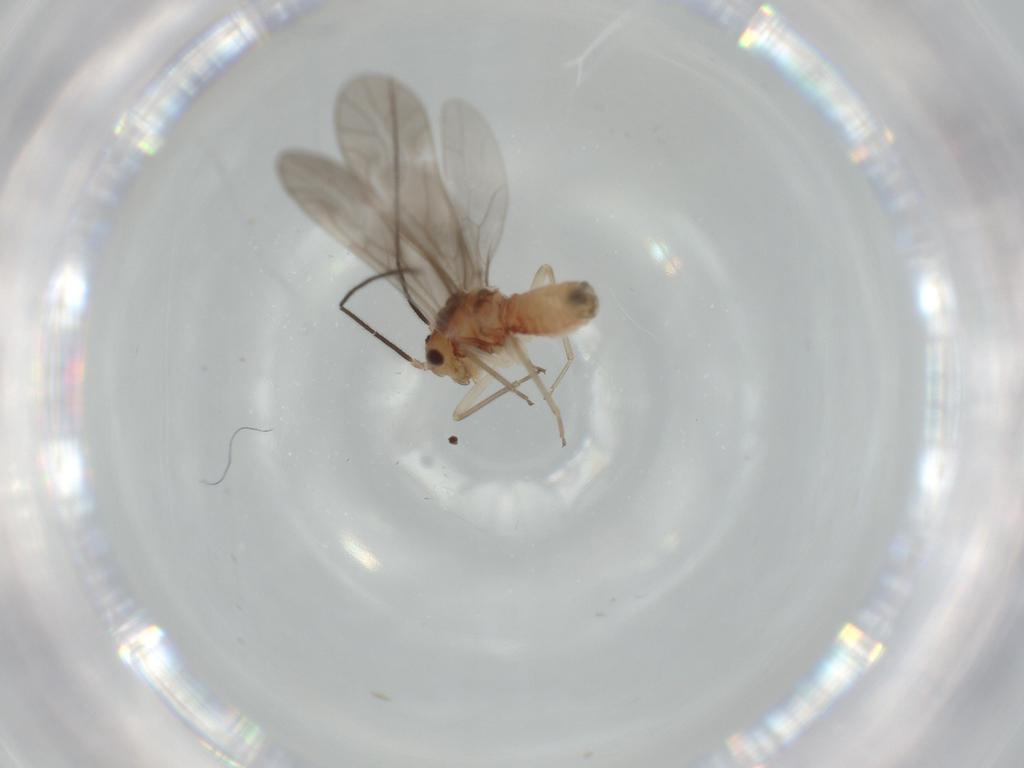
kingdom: Animalia
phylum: Arthropoda
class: Insecta
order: Psocodea
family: Caeciliusidae
